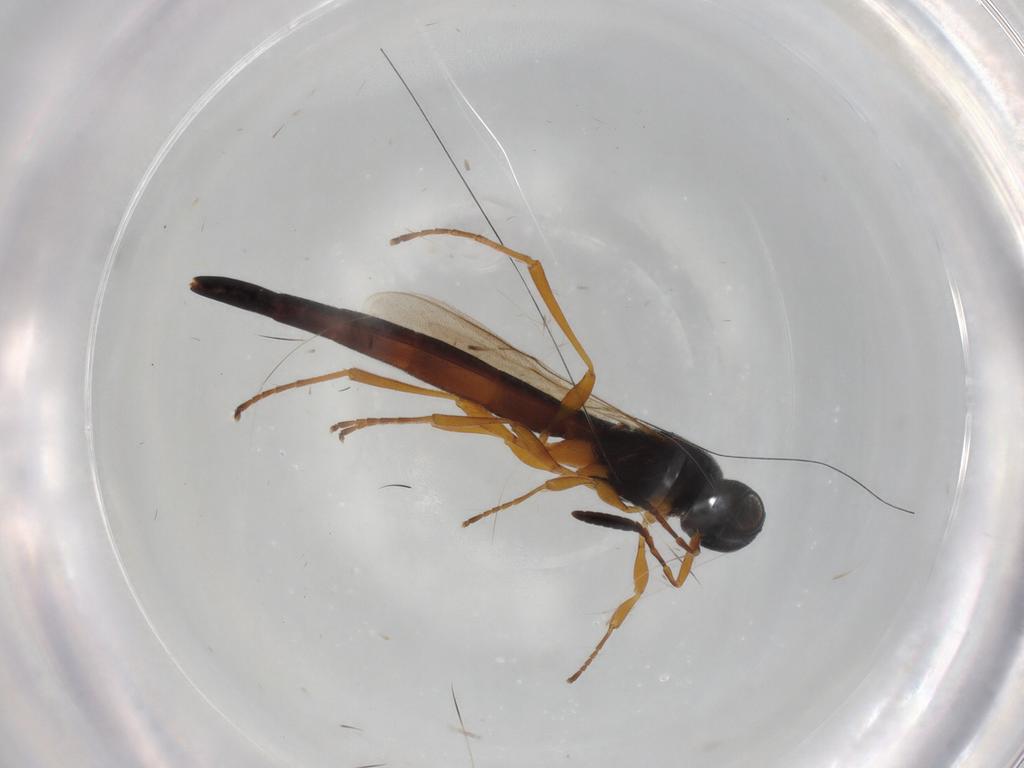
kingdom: Animalia
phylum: Arthropoda
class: Insecta
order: Hymenoptera
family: Scelionidae
